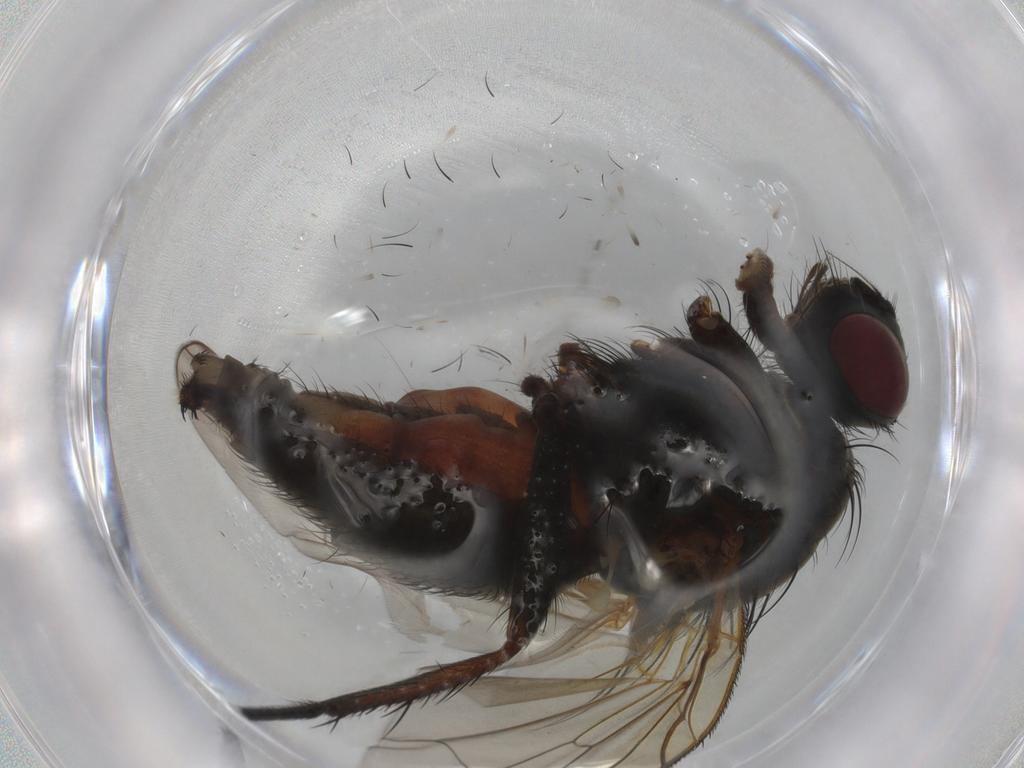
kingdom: Animalia
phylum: Arthropoda
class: Insecta
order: Diptera
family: Anthomyiidae
